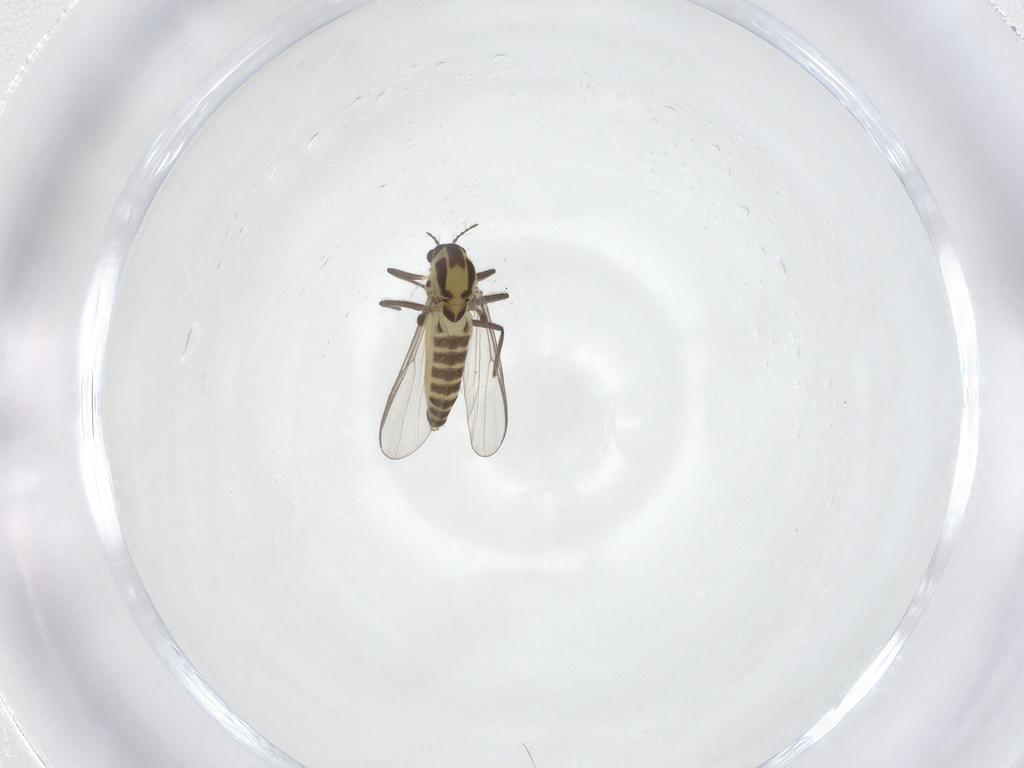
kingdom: Animalia
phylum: Arthropoda
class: Insecta
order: Diptera
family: Chironomidae
